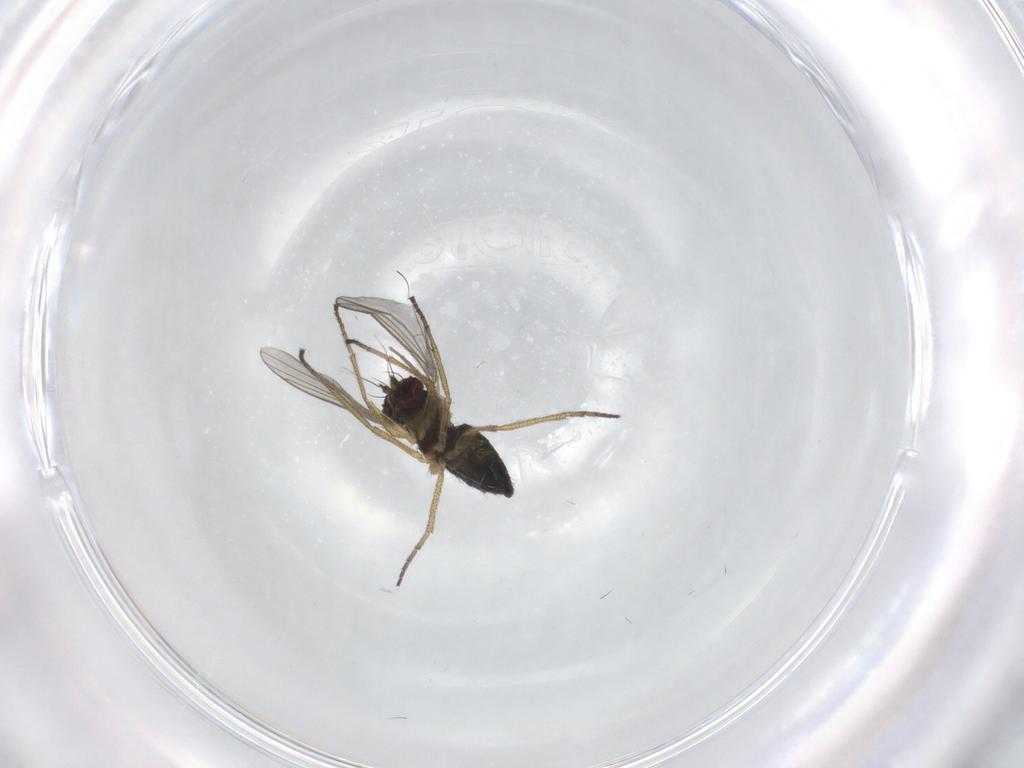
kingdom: Animalia
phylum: Arthropoda
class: Insecta
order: Diptera
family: Chironomidae
